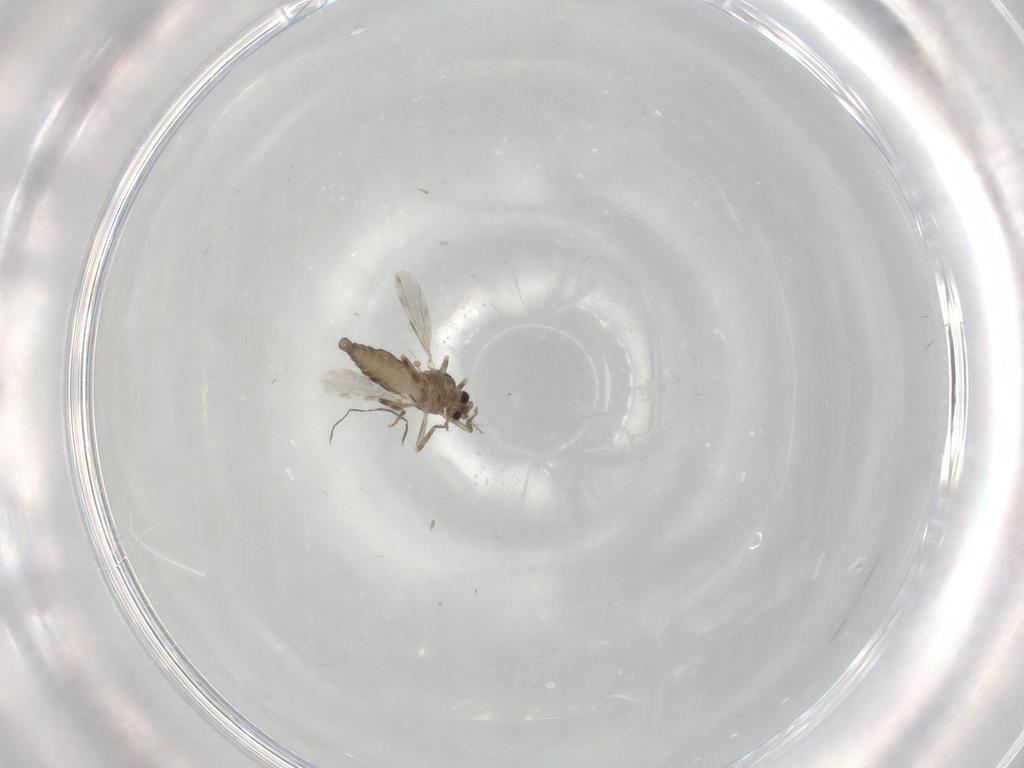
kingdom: Animalia
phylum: Arthropoda
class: Insecta
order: Diptera
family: Ceratopogonidae
